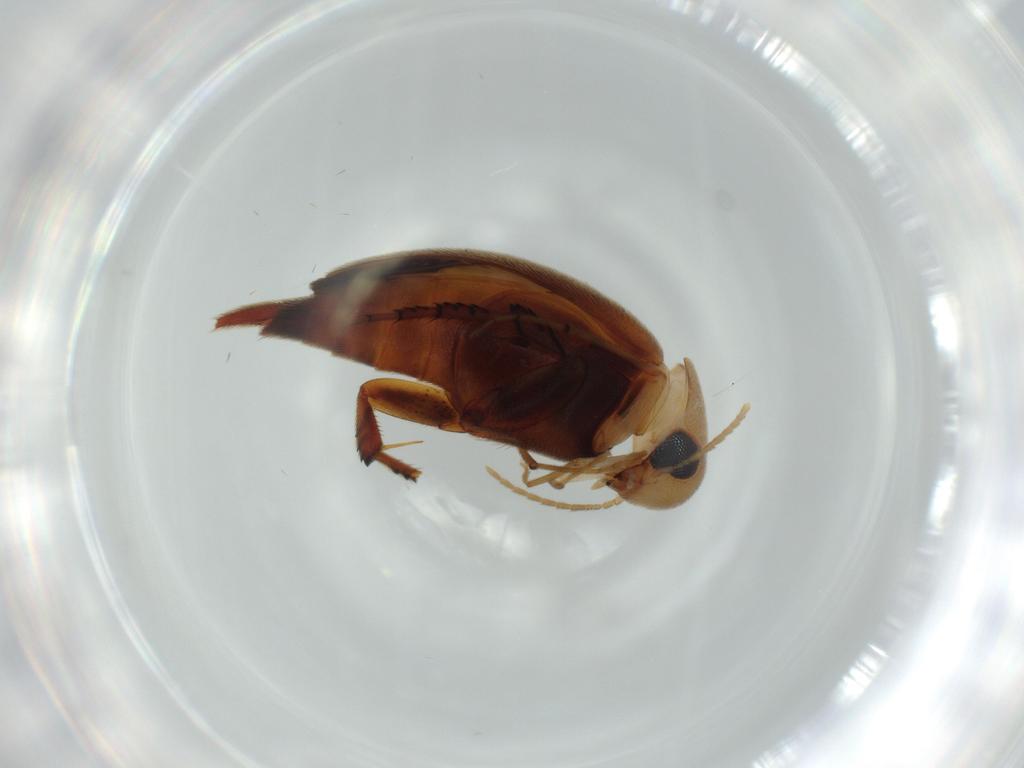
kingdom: Animalia
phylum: Arthropoda
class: Insecta
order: Coleoptera
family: Mordellidae
